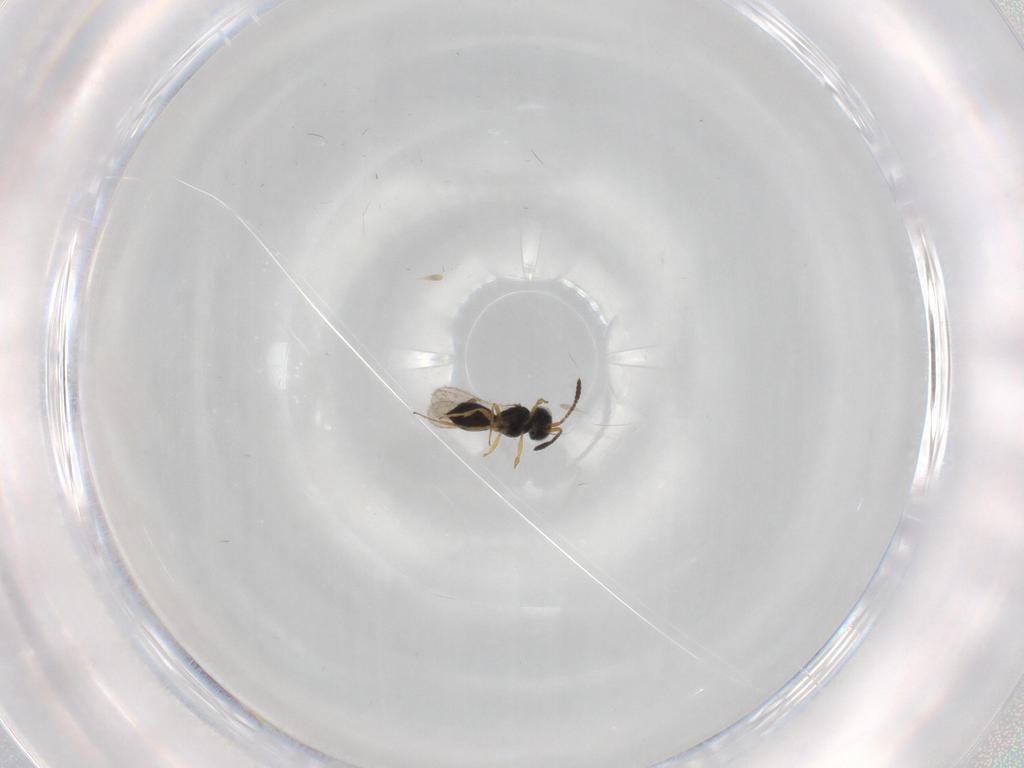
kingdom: Animalia
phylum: Arthropoda
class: Insecta
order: Hymenoptera
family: Scelionidae
